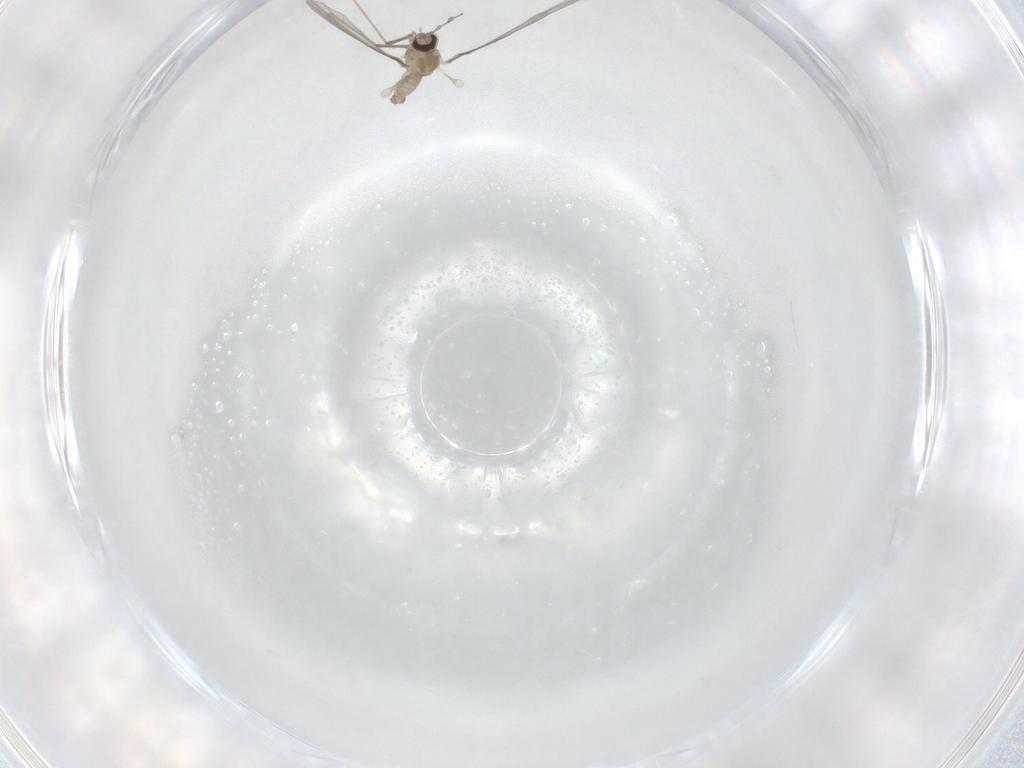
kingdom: Animalia
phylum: Arthropoda
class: Insecta
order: Diptera
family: Cecidomyiidae
